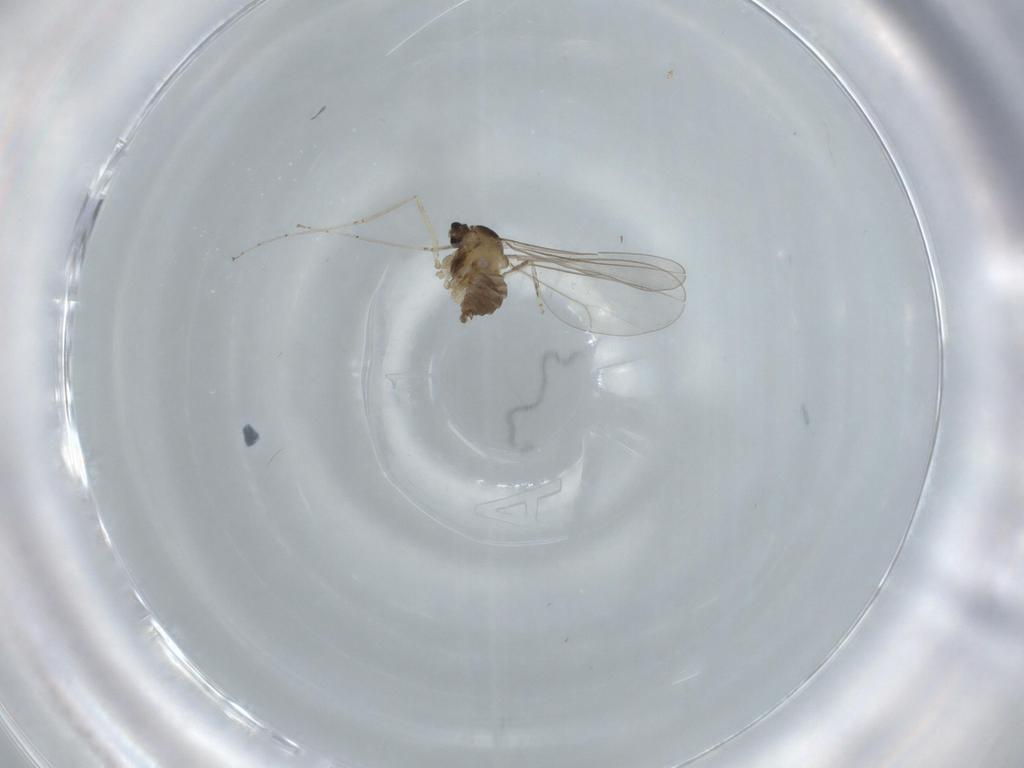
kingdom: Animalia
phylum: Arthropoda
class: Insecta
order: Diptera
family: Cecidomyiidae
